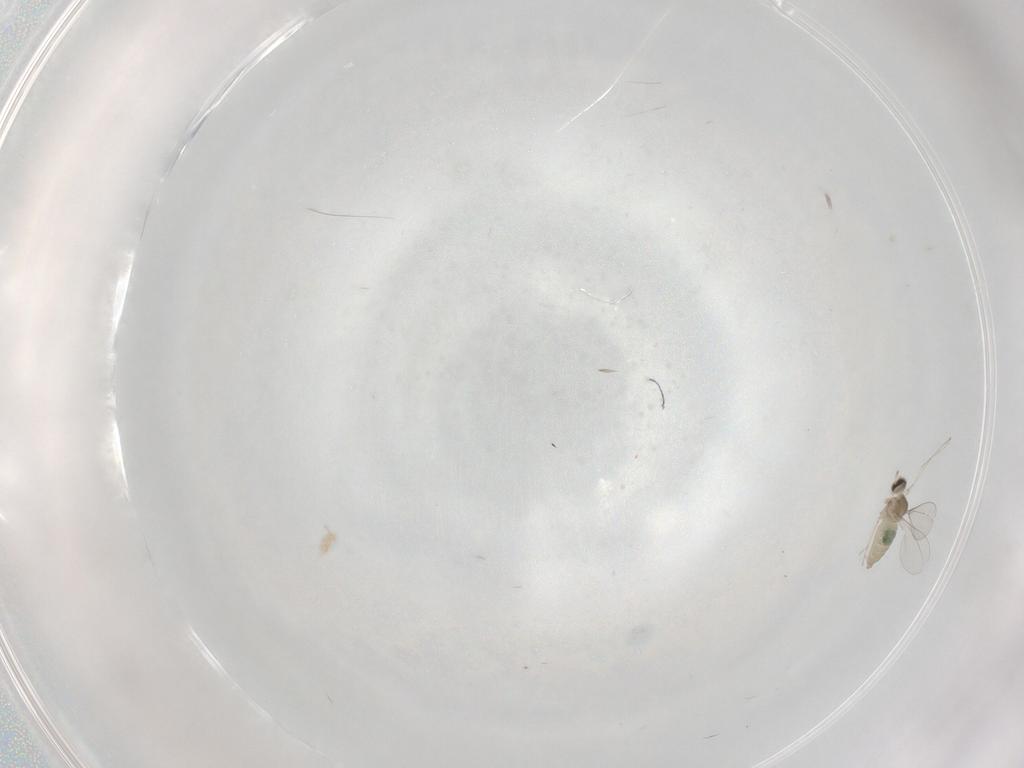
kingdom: Animalia
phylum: Arthropoda
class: Insecta
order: Diptera
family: Cecidomyiidae
